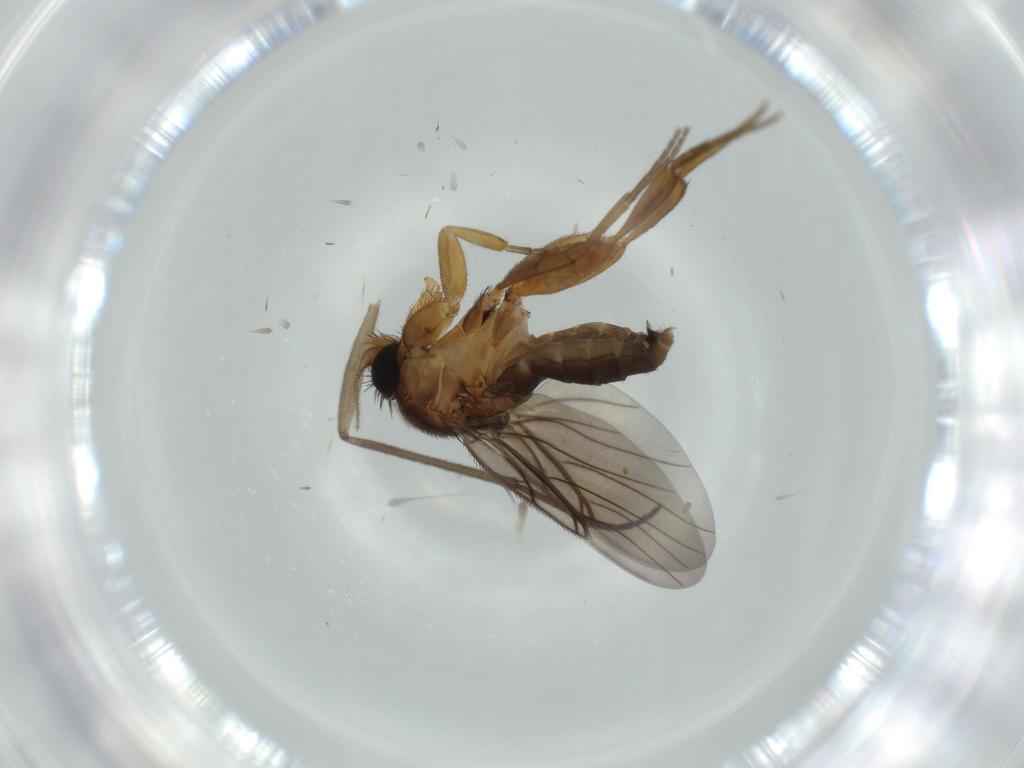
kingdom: Animalia
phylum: Arthropoda
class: Insecta
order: Diptera
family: Sciaridae
